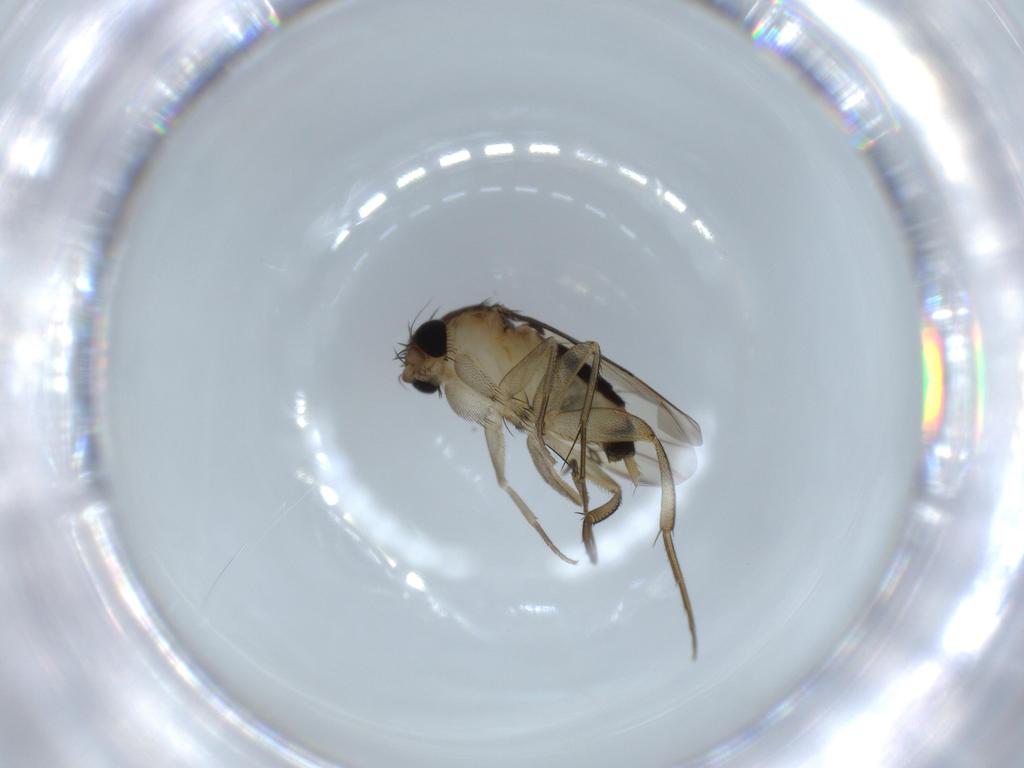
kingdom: Animalia
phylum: Arthropoda
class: Insecta
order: Diptera
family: Phoridae
